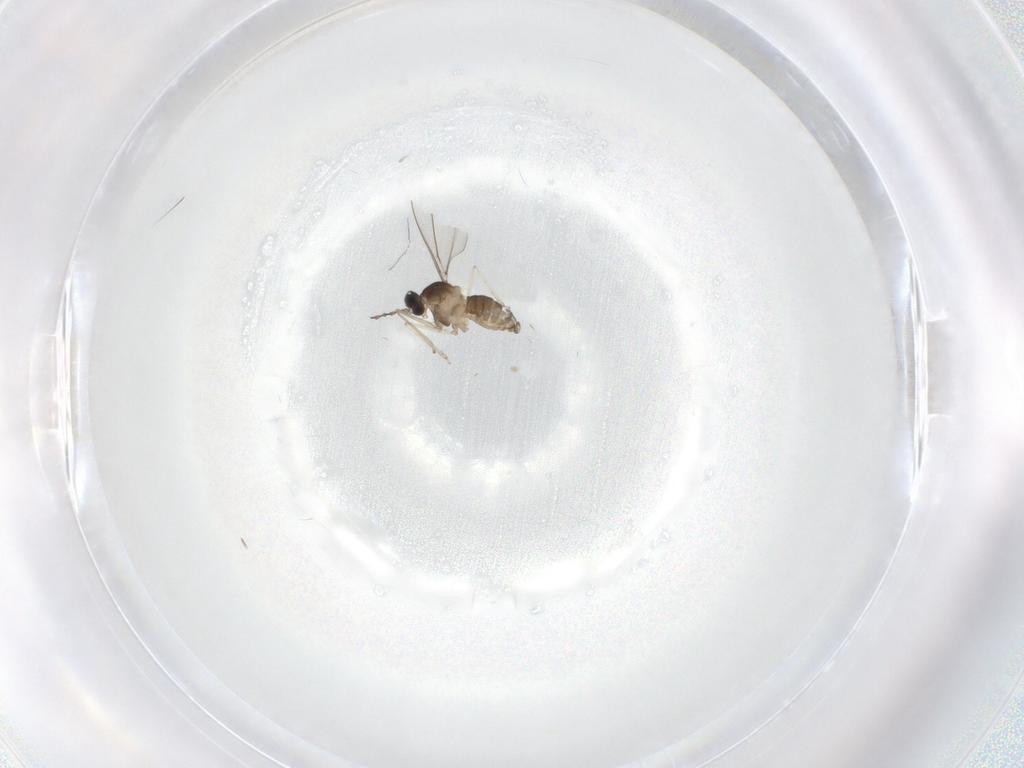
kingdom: Animalia
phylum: Arthropoda
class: Insecta
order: Diptera
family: Cecidomyiidae
